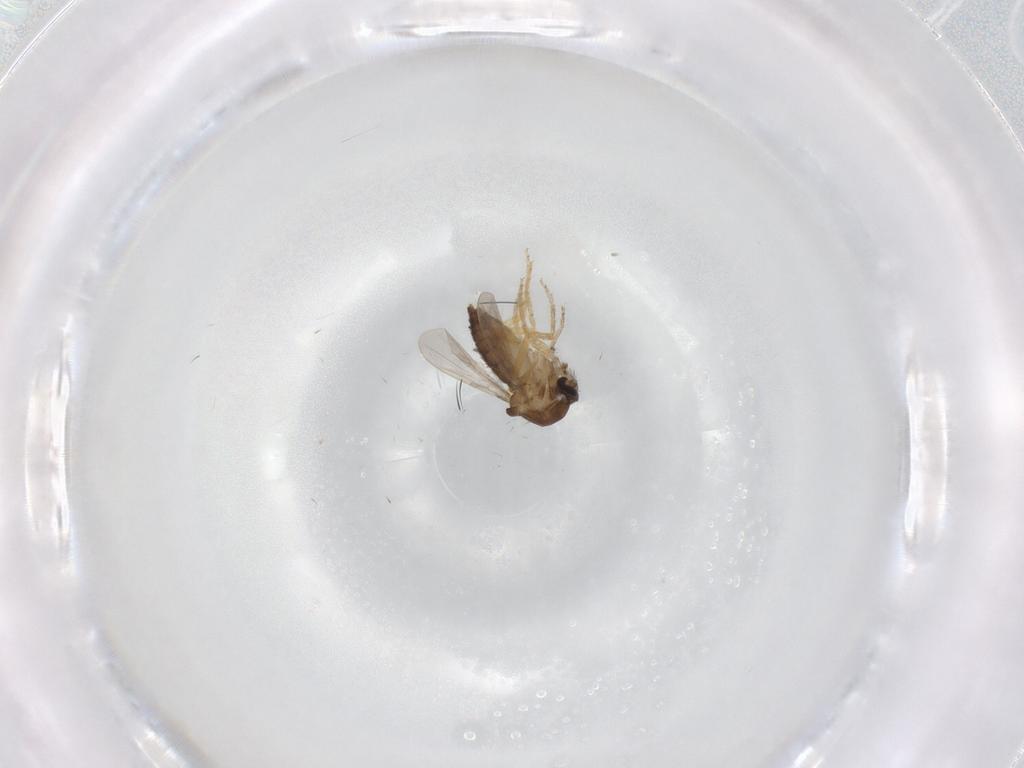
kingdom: Animalia
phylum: Arthropoda
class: Insecta
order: Diptera
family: Ceratopogonidae
